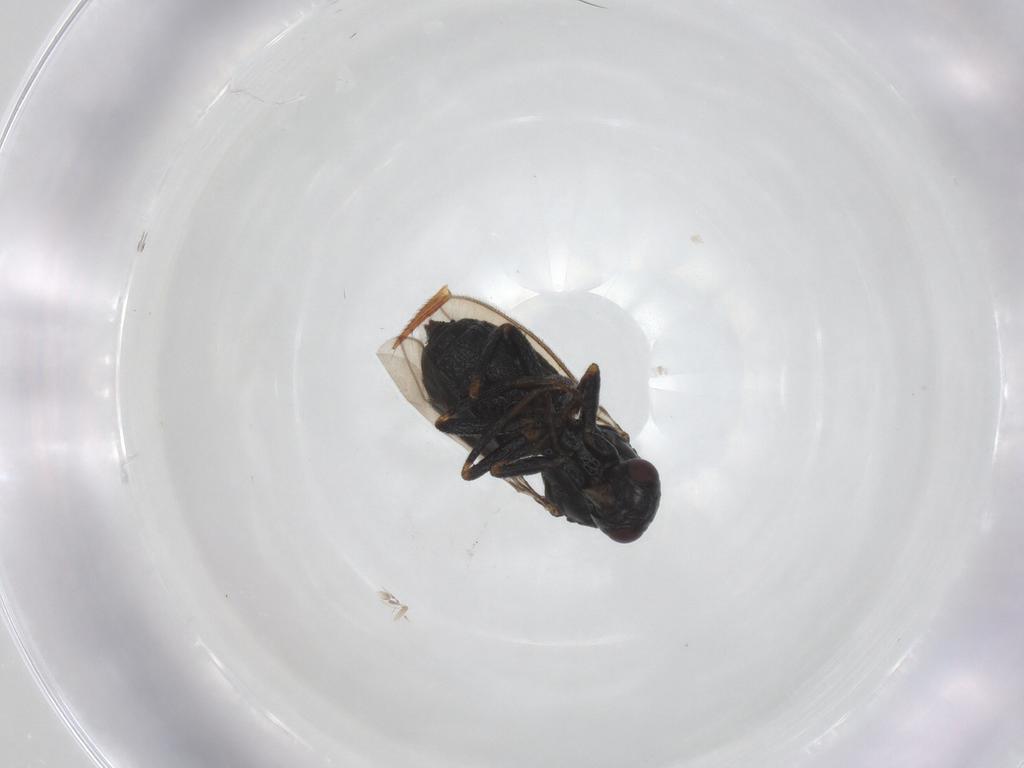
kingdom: Animalia
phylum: Arthropoda
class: Insecta
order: Diptera
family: Sphaeroceridae
